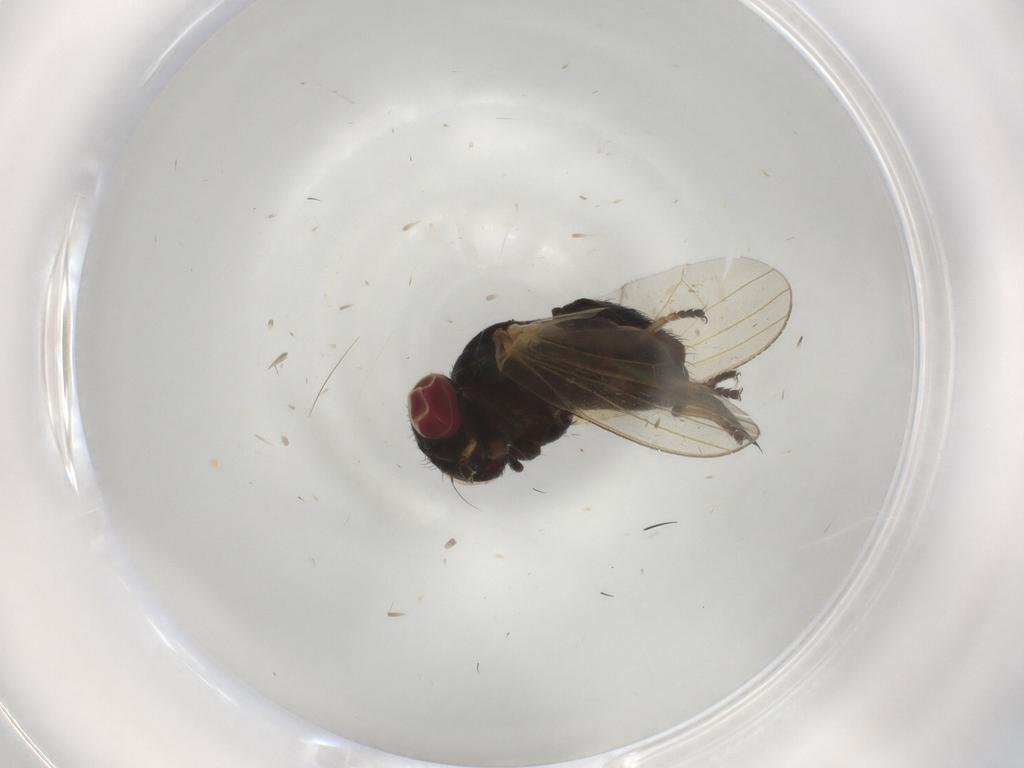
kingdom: Animalia
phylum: Arthropoda
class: Insecta
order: Diptera
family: Lonchaeidae
